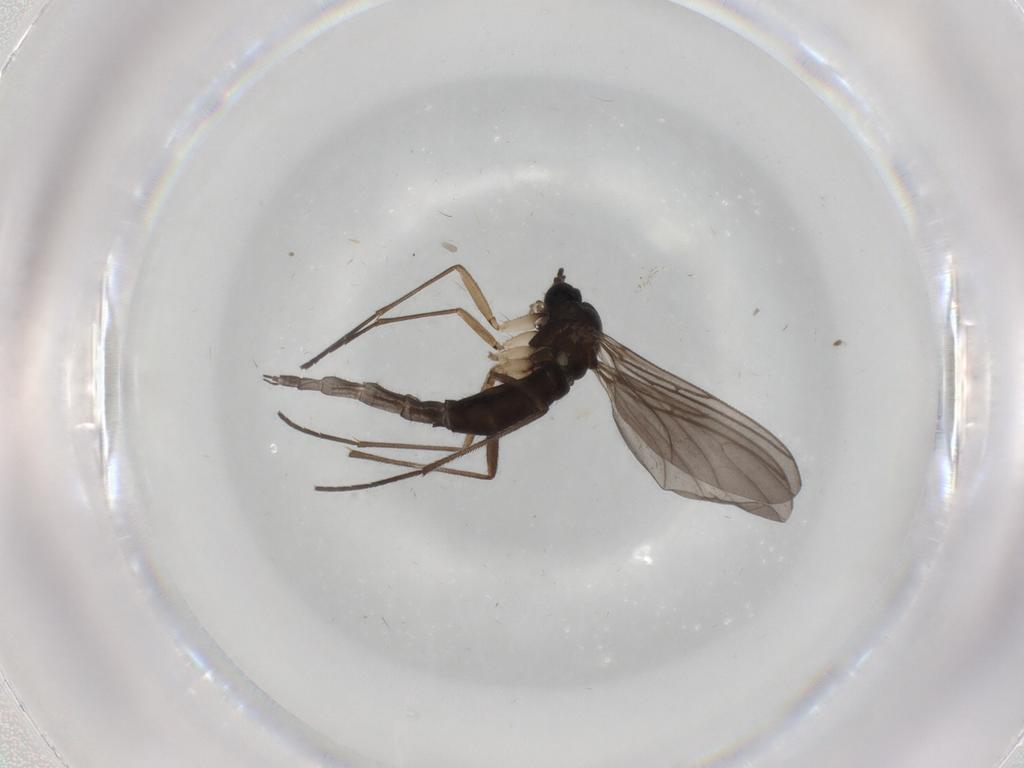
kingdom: Animalia
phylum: Arthropoda
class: Insecta
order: Diptera
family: Sciaridae
